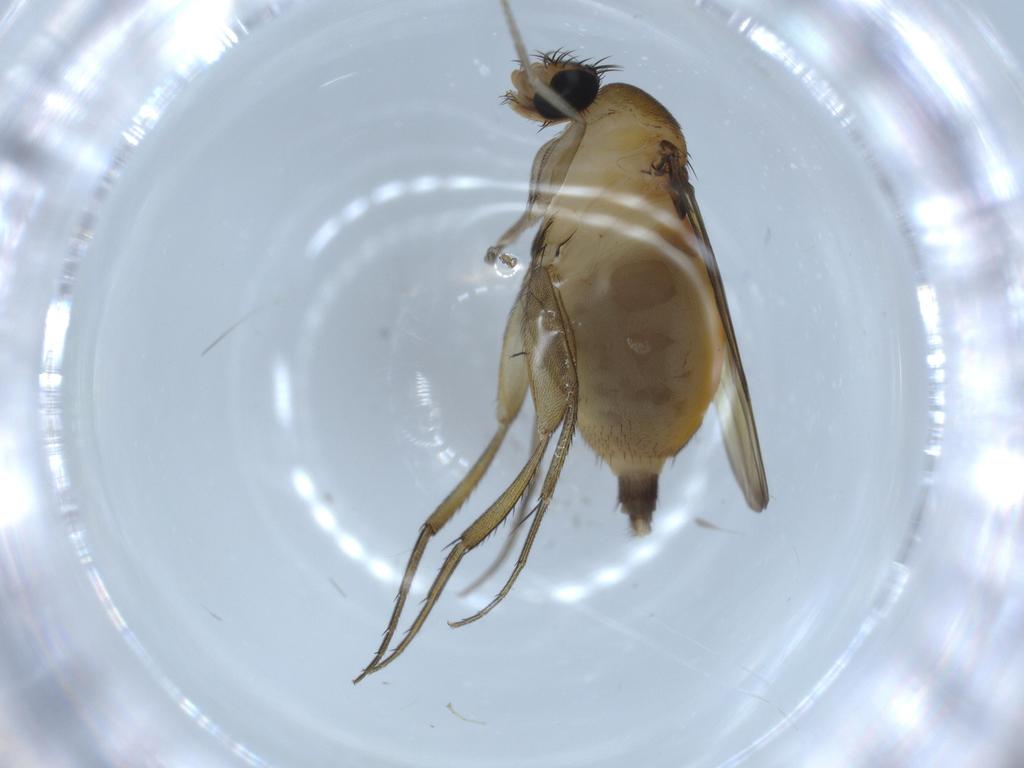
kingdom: Animalia
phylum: Arthropoda
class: Insecta
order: Diptera
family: Phoridae
